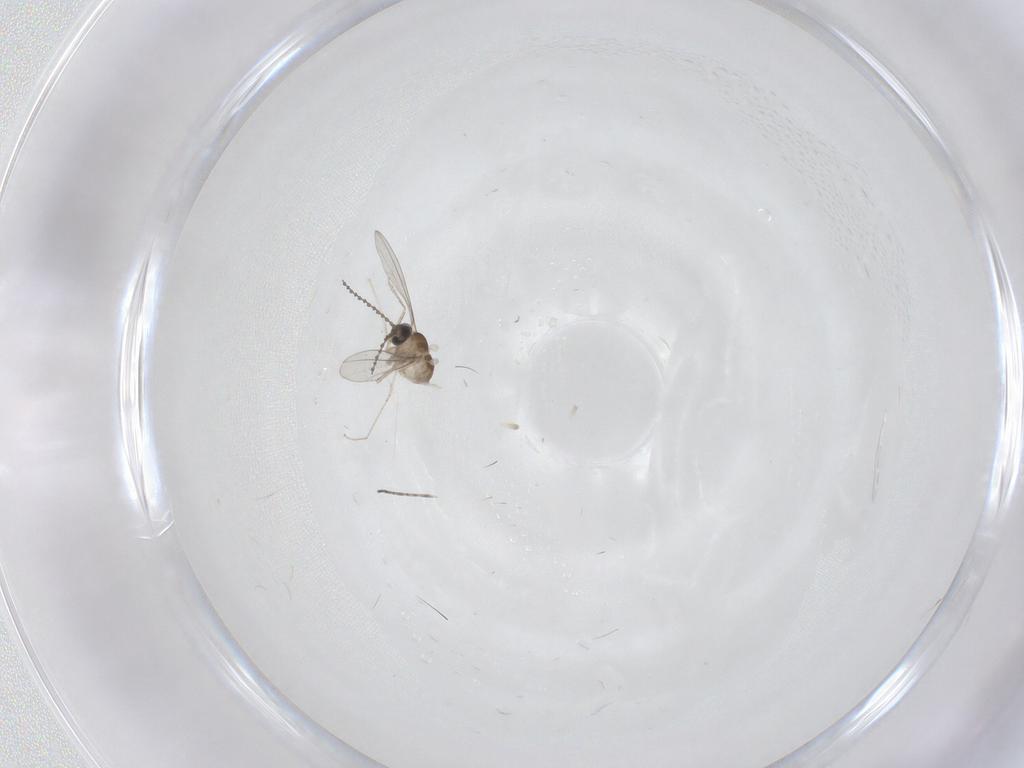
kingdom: Animalia
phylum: Arthropoda
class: Insecta
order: Diptera
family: Cecidomyiidae
